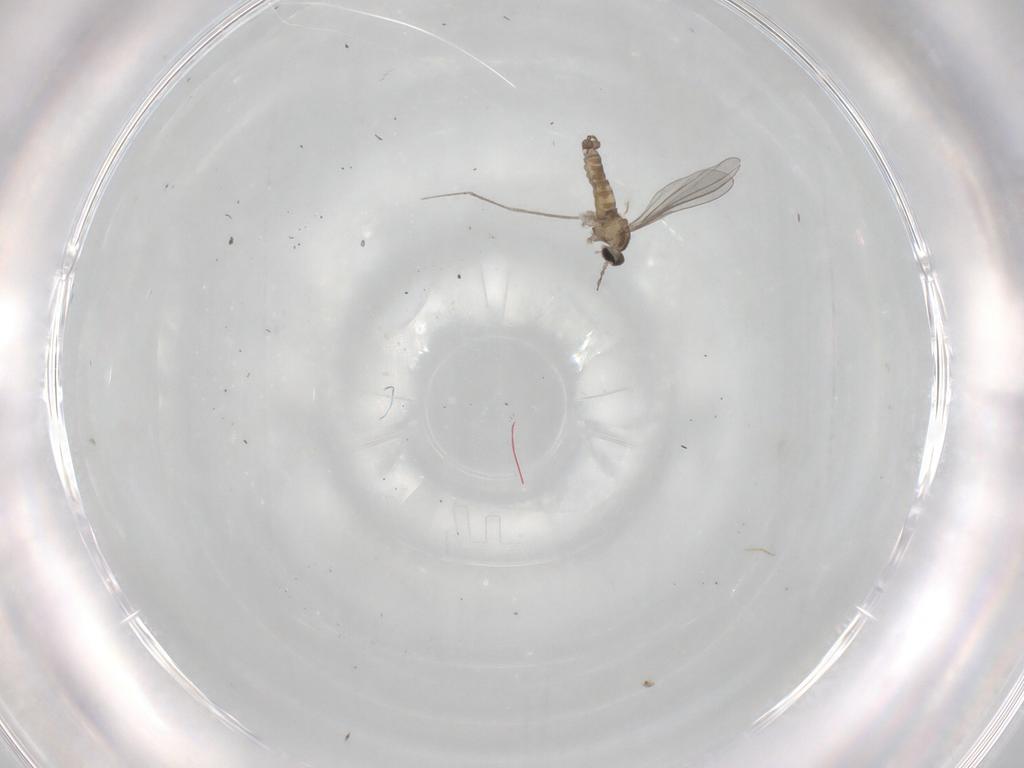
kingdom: Animalia
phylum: Arthropoda
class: Insecta
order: Diptera
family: Cecidomyiidae
